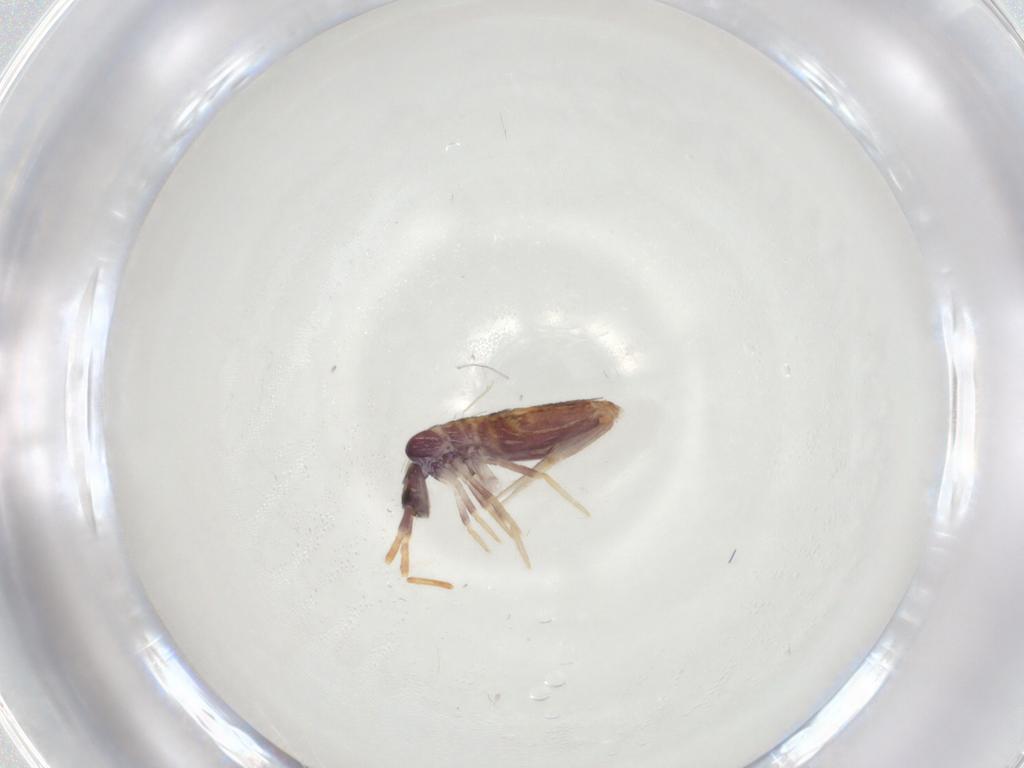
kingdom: Animalia
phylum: Arthropoda
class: Collembola
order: Entomobryomorpha
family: Entomobryidae
